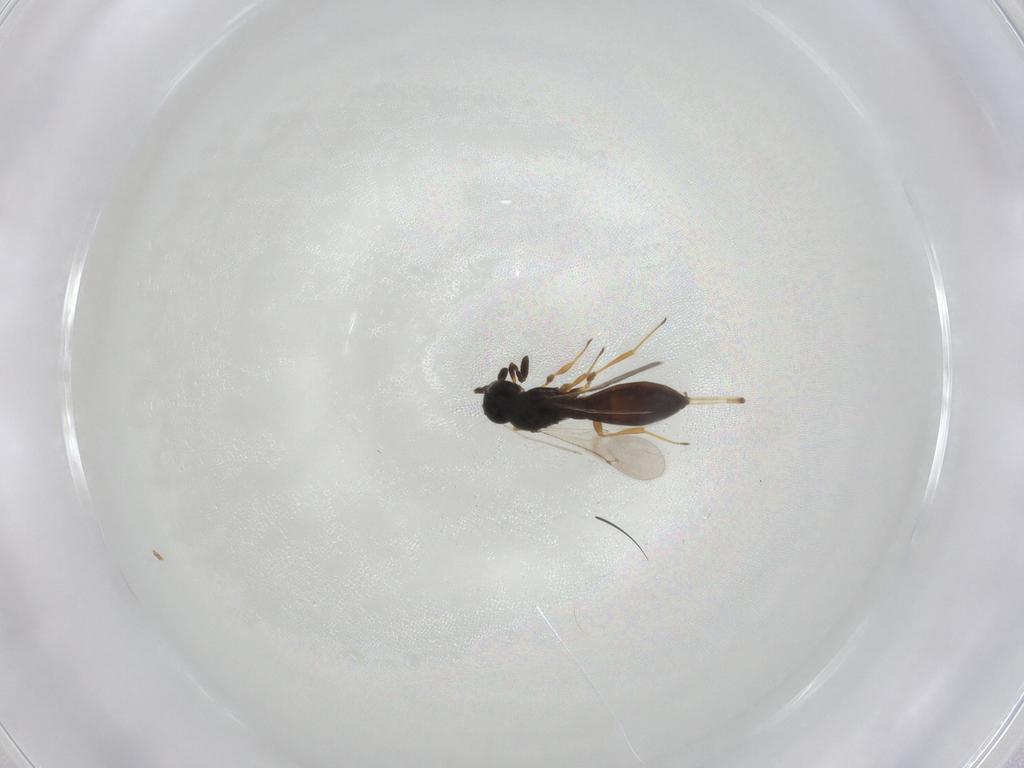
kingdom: Animalia
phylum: Arthropoda
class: Insecta
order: Hymenoptera
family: Scelionidae
